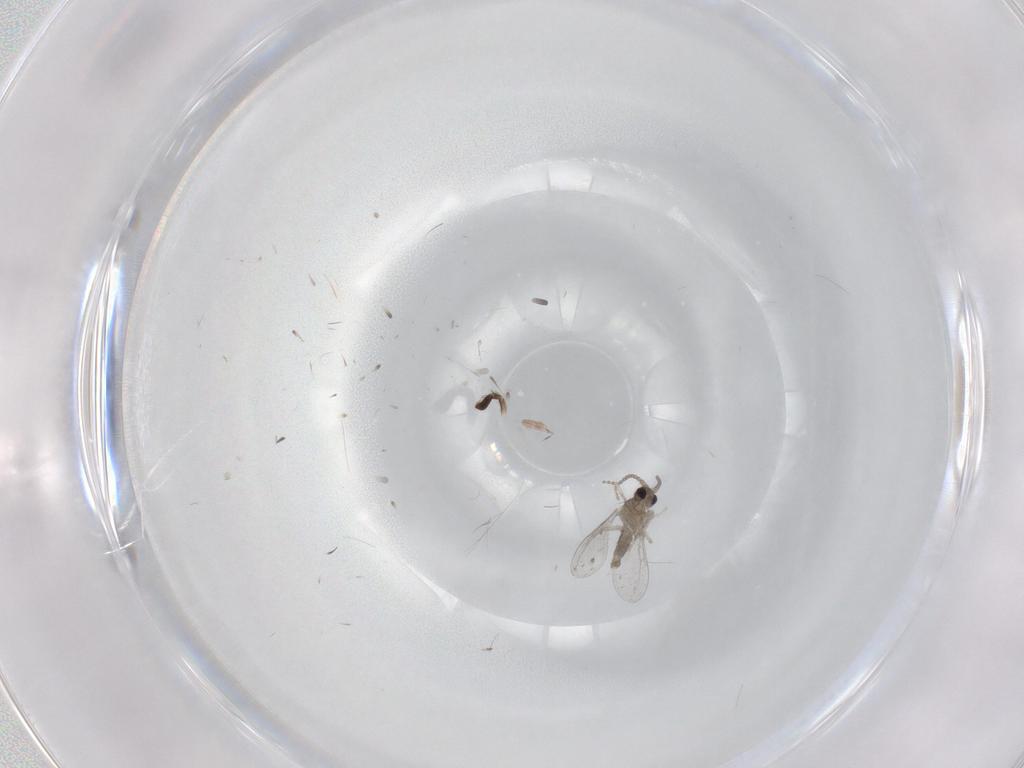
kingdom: Animalia
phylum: Arthropoda
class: Insecta
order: Diptera
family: Cecidomyiidae
